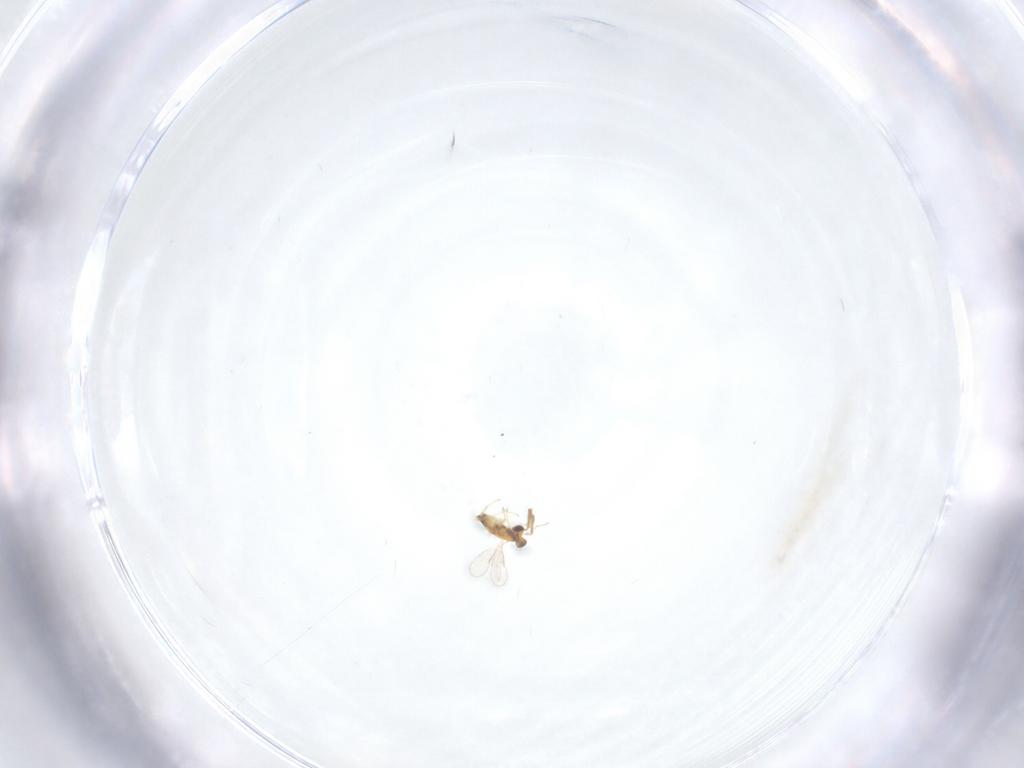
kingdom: Animalia
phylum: Arthropoda
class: Insecta
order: Hymenoptera
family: Aphelinidae
